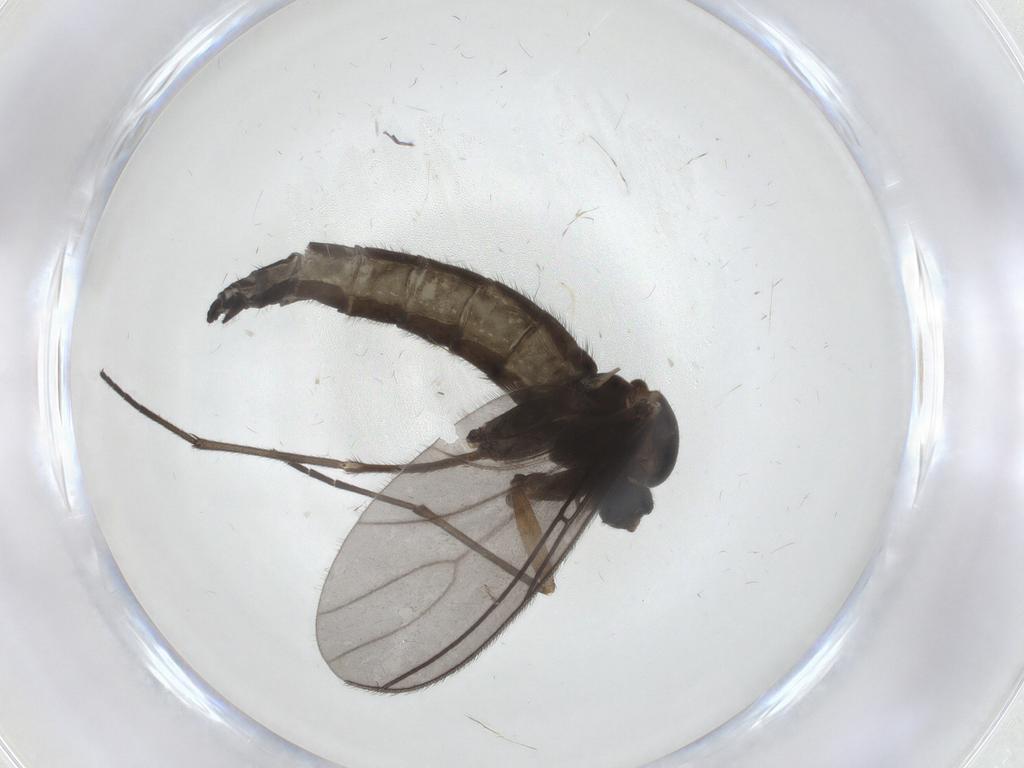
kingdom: Animalia
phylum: Arthropoda
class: Insecta
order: Diptera
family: Sciaridae
